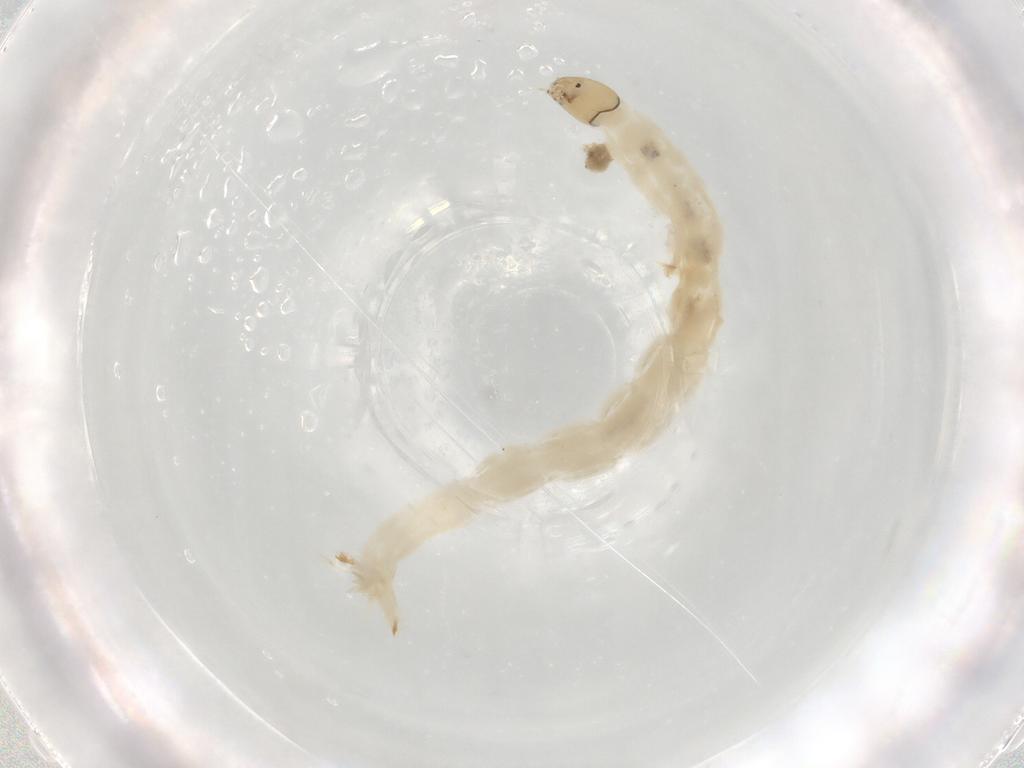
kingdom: Animalia
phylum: Arthropoda
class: Insecta
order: Diptera
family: Chironomidae
